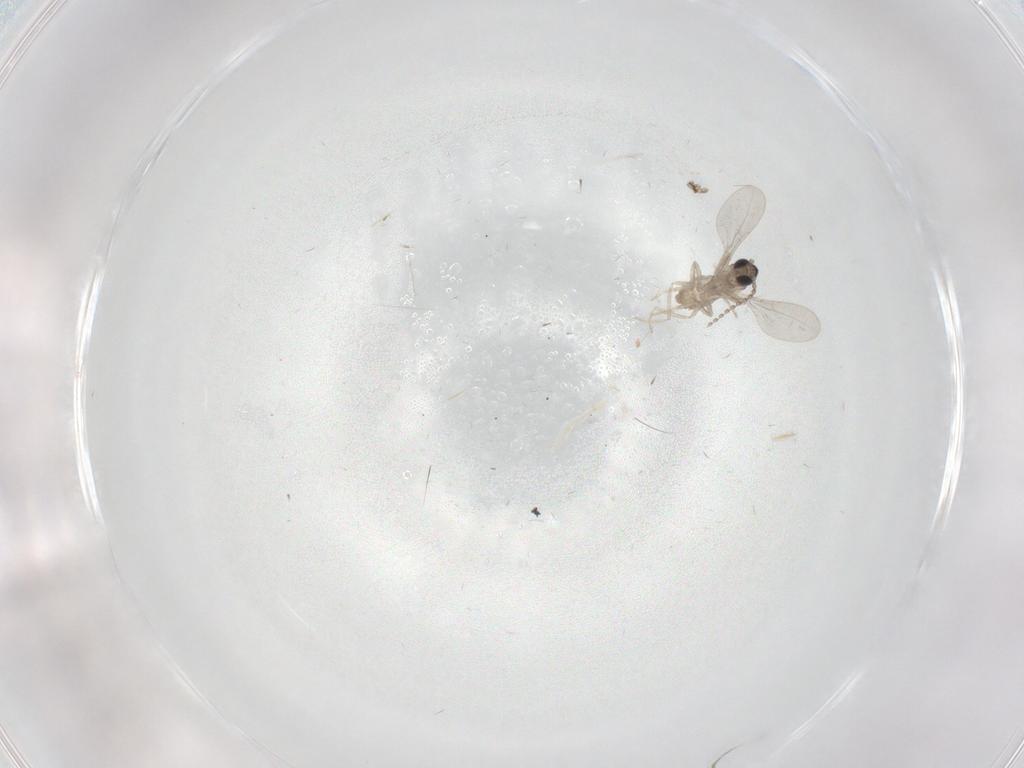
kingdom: Animalia
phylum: Arthropoda
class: Insecta
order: Diptera
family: Cecidomyiidae
